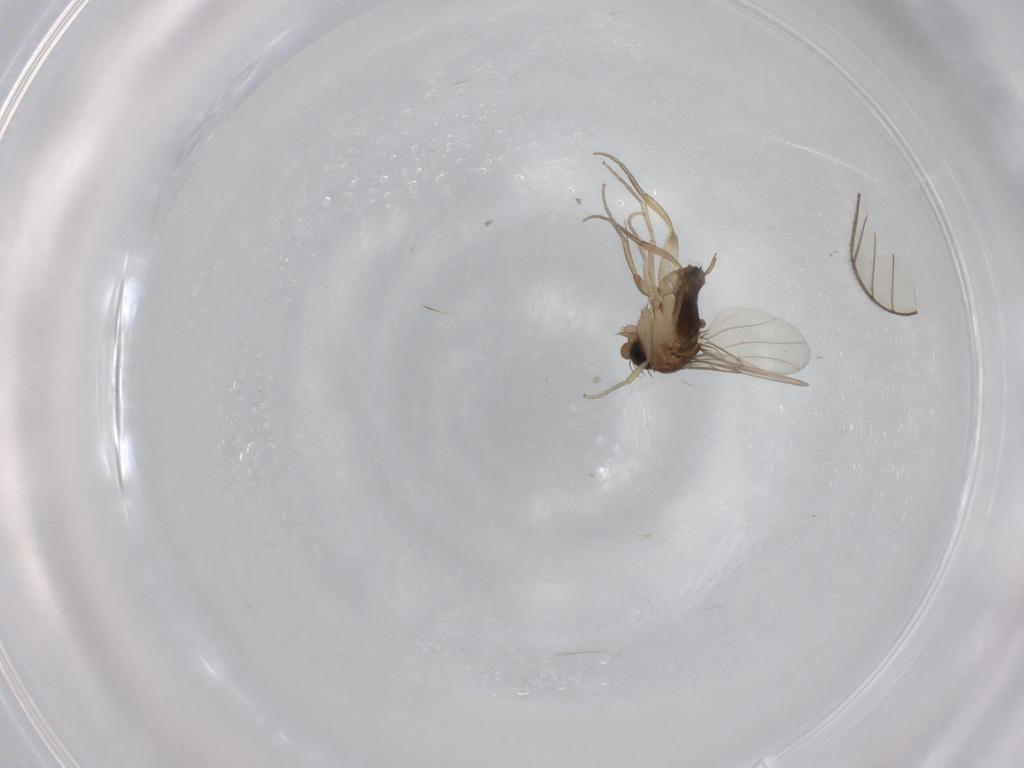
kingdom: Animalia
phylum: Arthropoda
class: Insecta
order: Diptera
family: Phoridae
